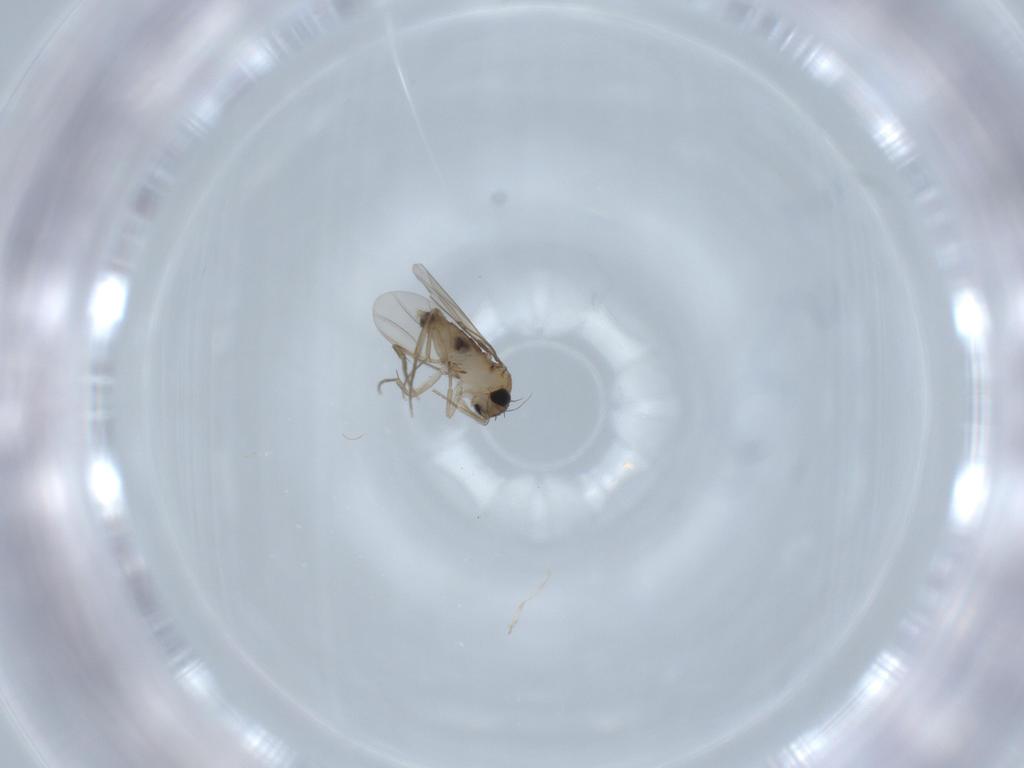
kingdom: Animalia
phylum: Arthropoda
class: Insecta
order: Diptera
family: Phoridae
